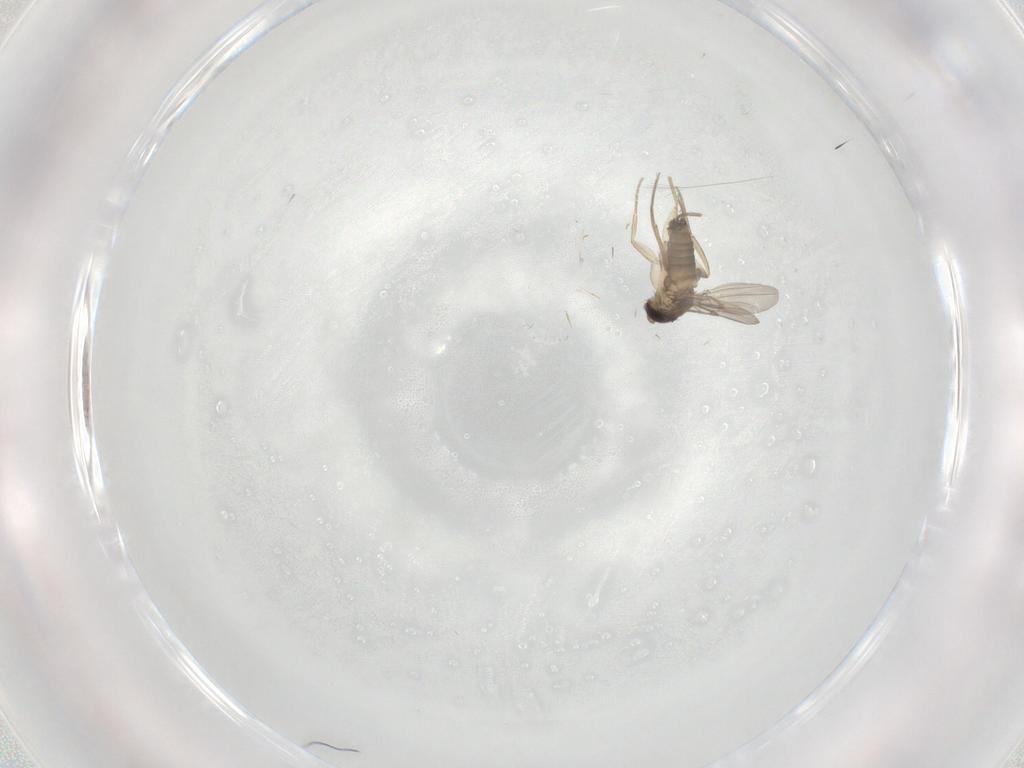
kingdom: Animalia
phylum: Arthropoda
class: Insecta
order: Diptera
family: Phoridae
